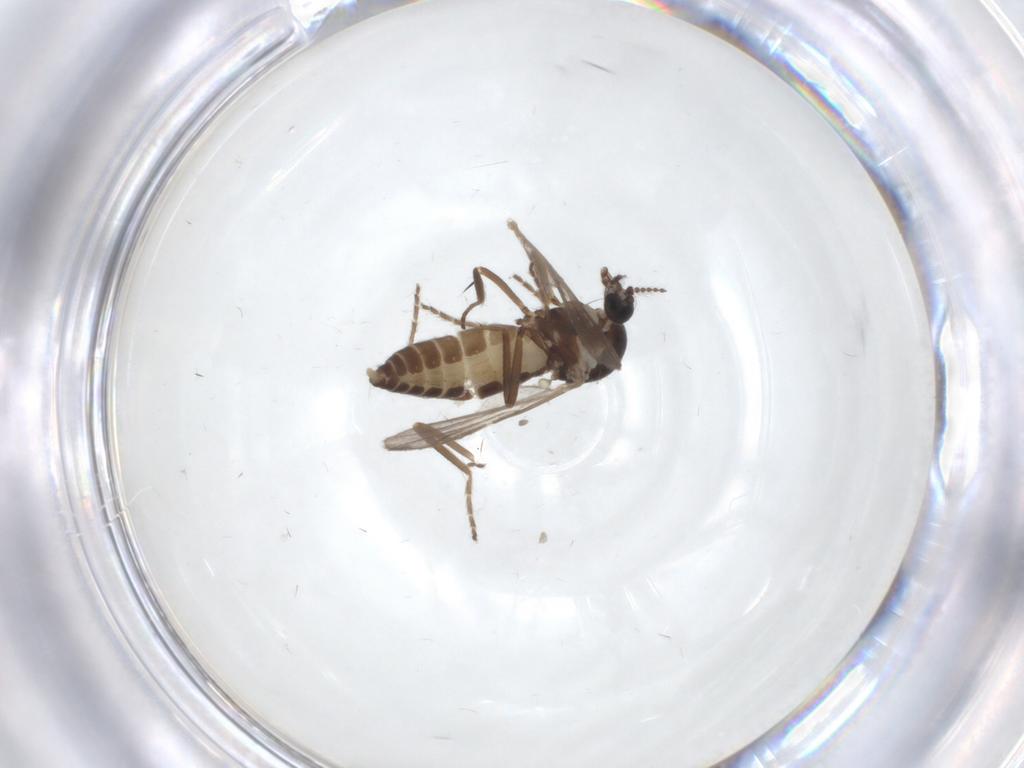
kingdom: Animalia
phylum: Arthropoda
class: Insecta
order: Diptera
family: Ceratopogonidae
